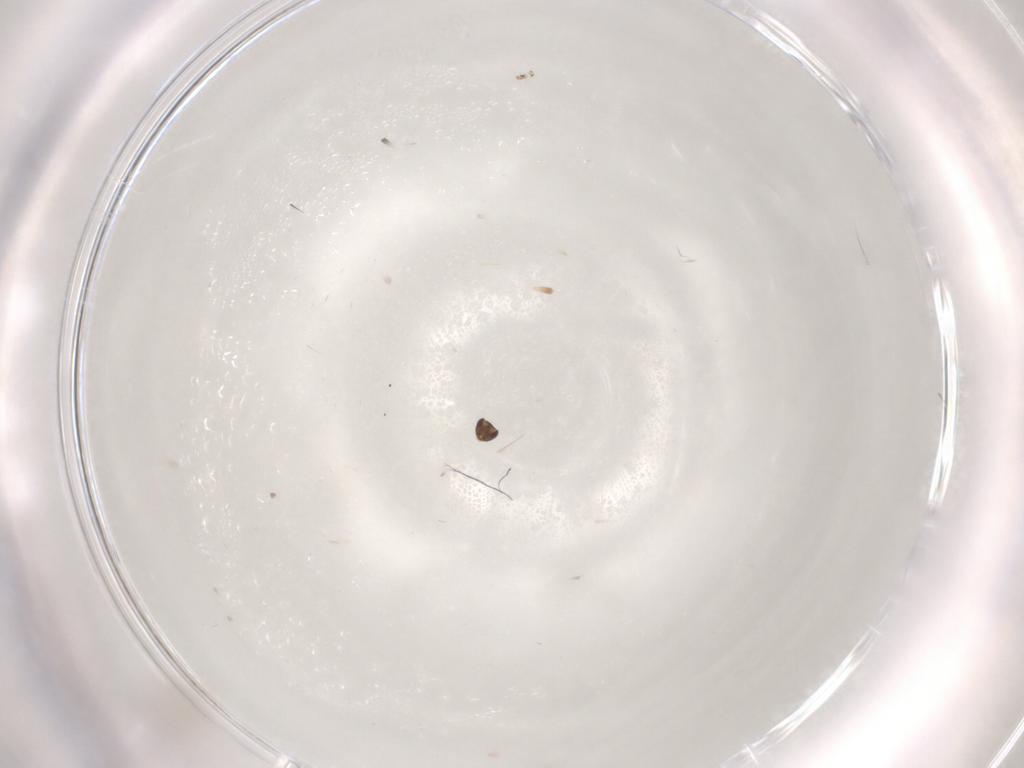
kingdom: Animalia
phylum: Arthropoda
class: Insecta
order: Hymenoptera
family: Mymaridae
